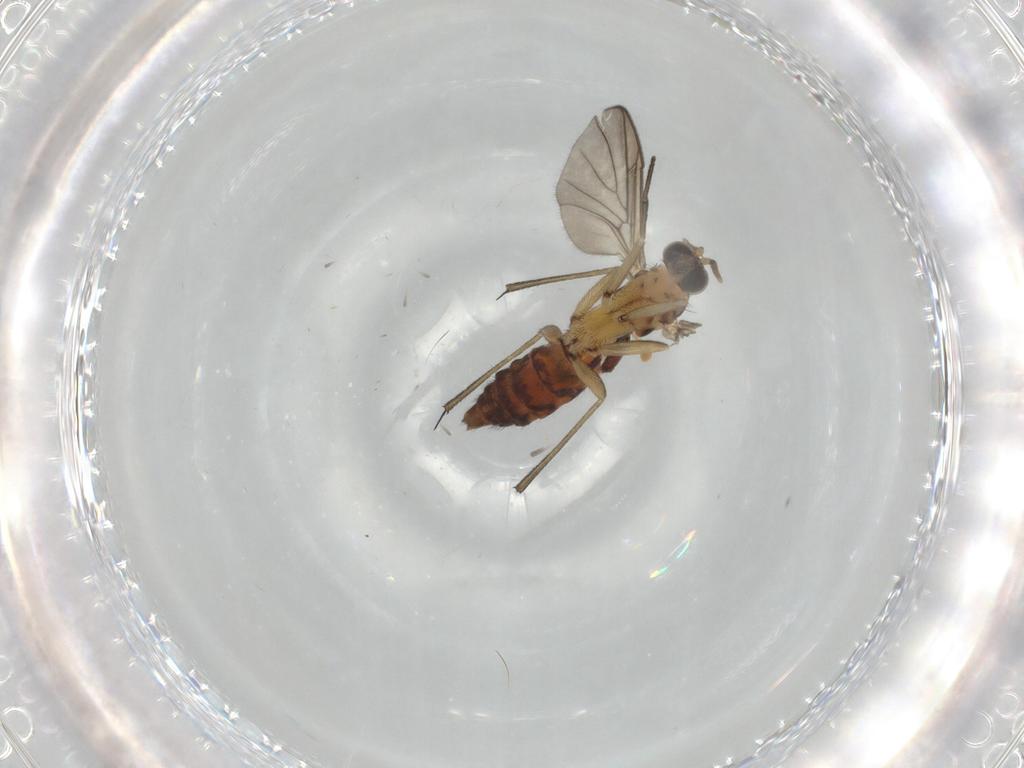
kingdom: Animalia
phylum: Arthropoda
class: Insecta
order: Diptera
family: Keroplatidae
